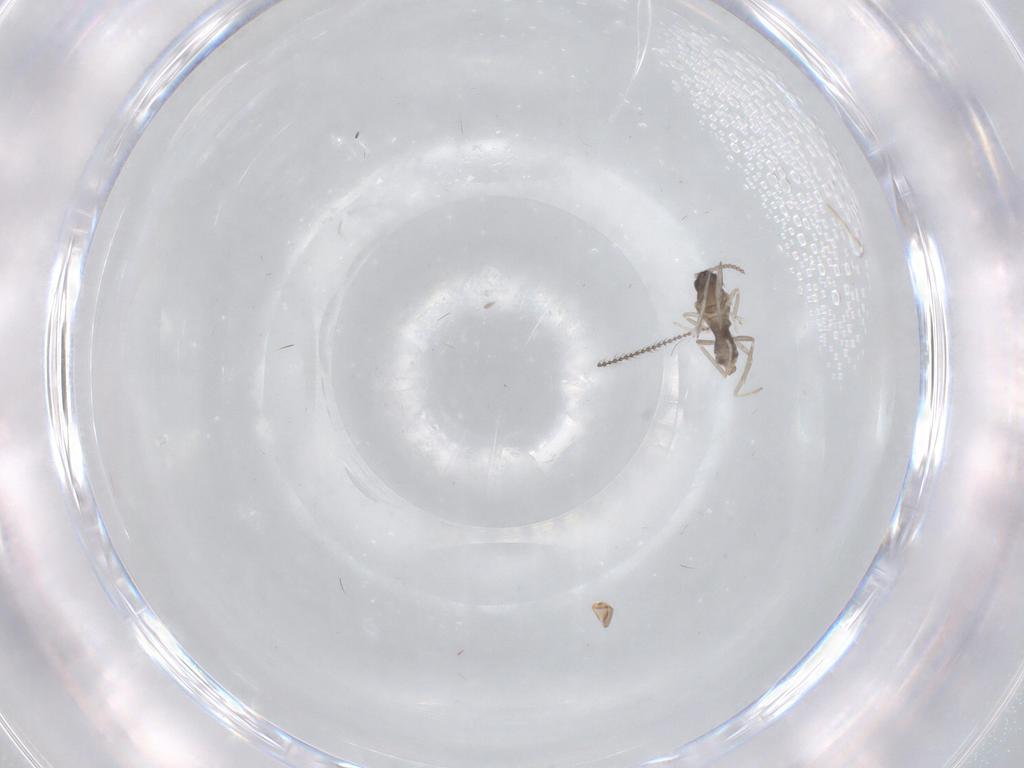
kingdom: Animalia
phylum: Arthropoda
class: Insecta
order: Diptera
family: Cecidomyiidae
